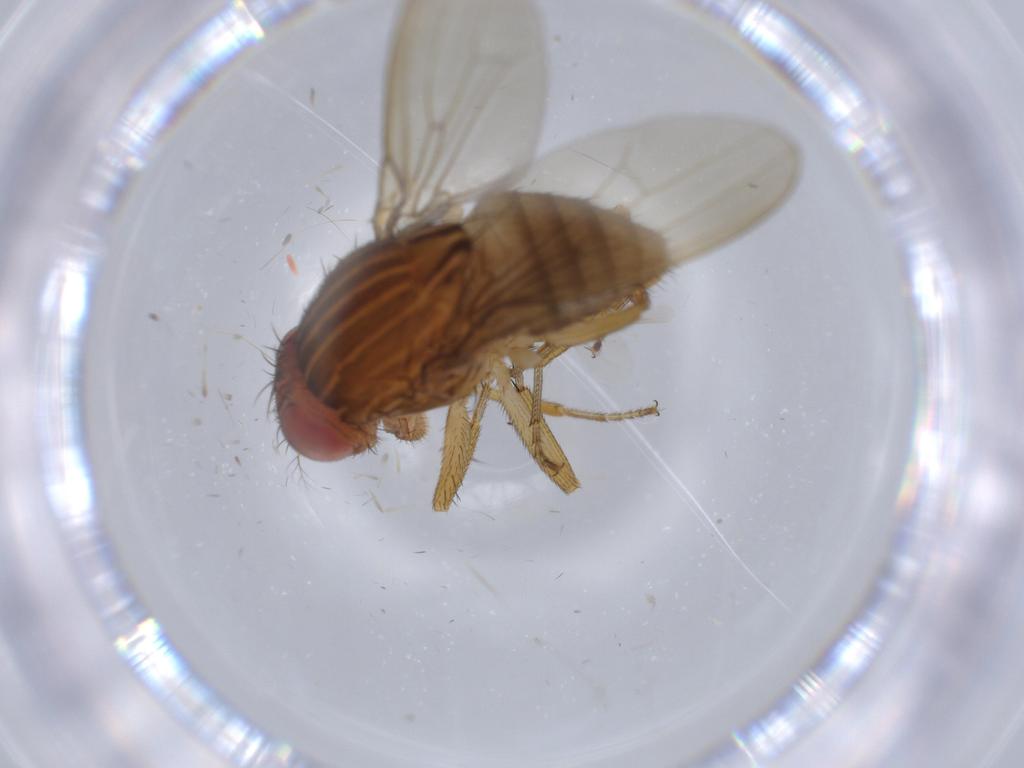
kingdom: Animalia
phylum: Arthropoda
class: Insecta
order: Diptera
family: Drosophilidae
